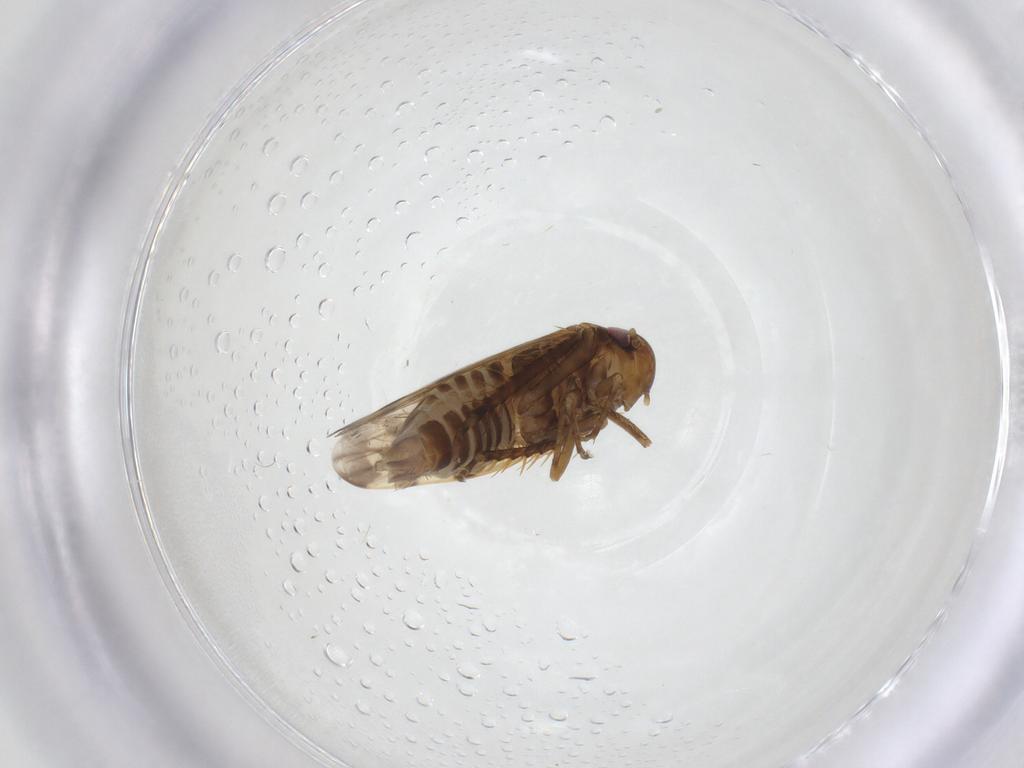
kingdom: Animalia
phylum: Arthropoda
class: Insecta
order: Hemiptera
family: Cicadellidae
